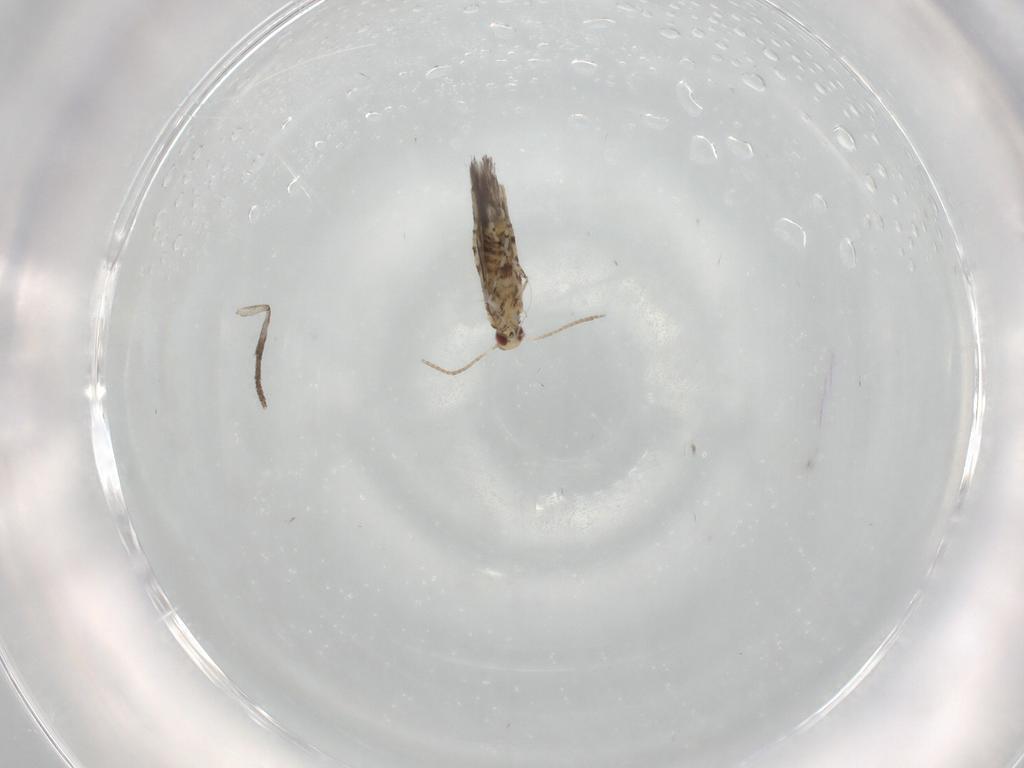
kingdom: Animalia
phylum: Arthropoda
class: Insecta
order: Lepidoptera
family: Gracillariidae
